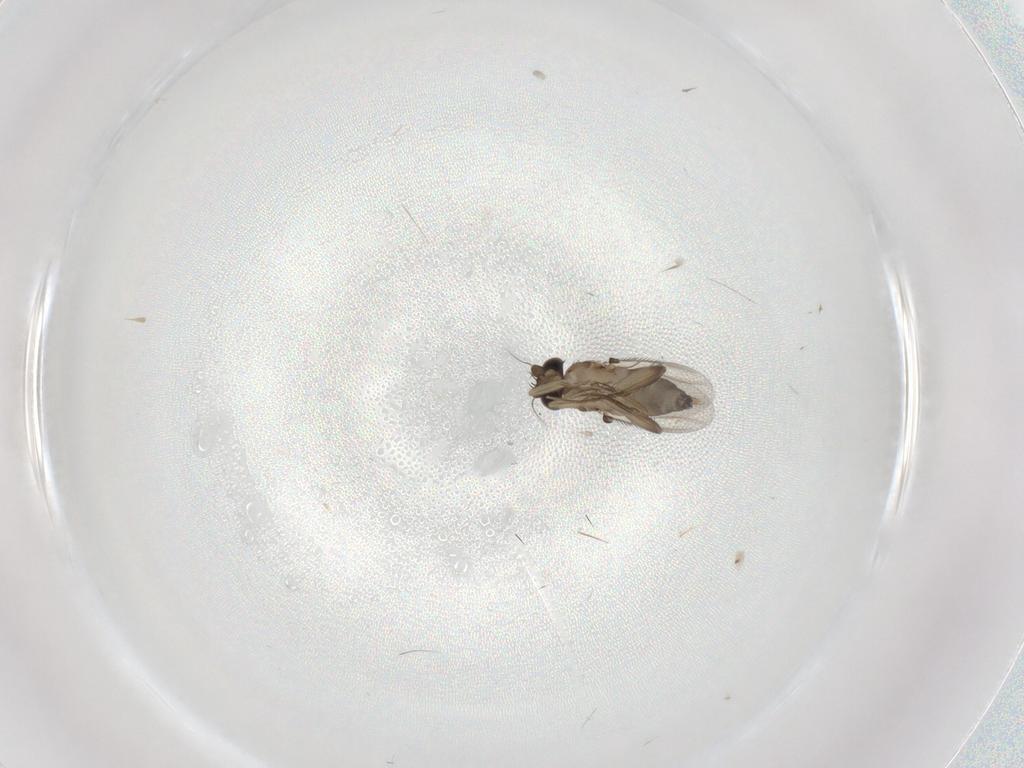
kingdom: Animalia
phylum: Arthropoda
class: Insecta
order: Diptera
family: Phoridae
